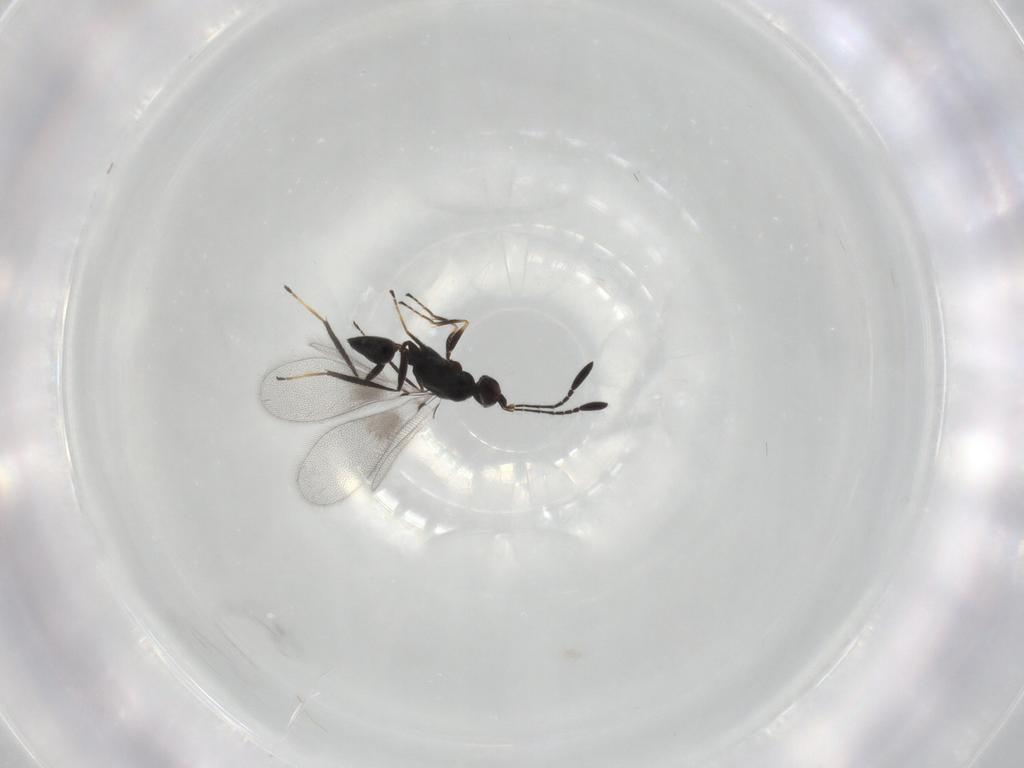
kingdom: Animalia
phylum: Arthropoda
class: Insecta
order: Hymenoptera
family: Mymaridae
